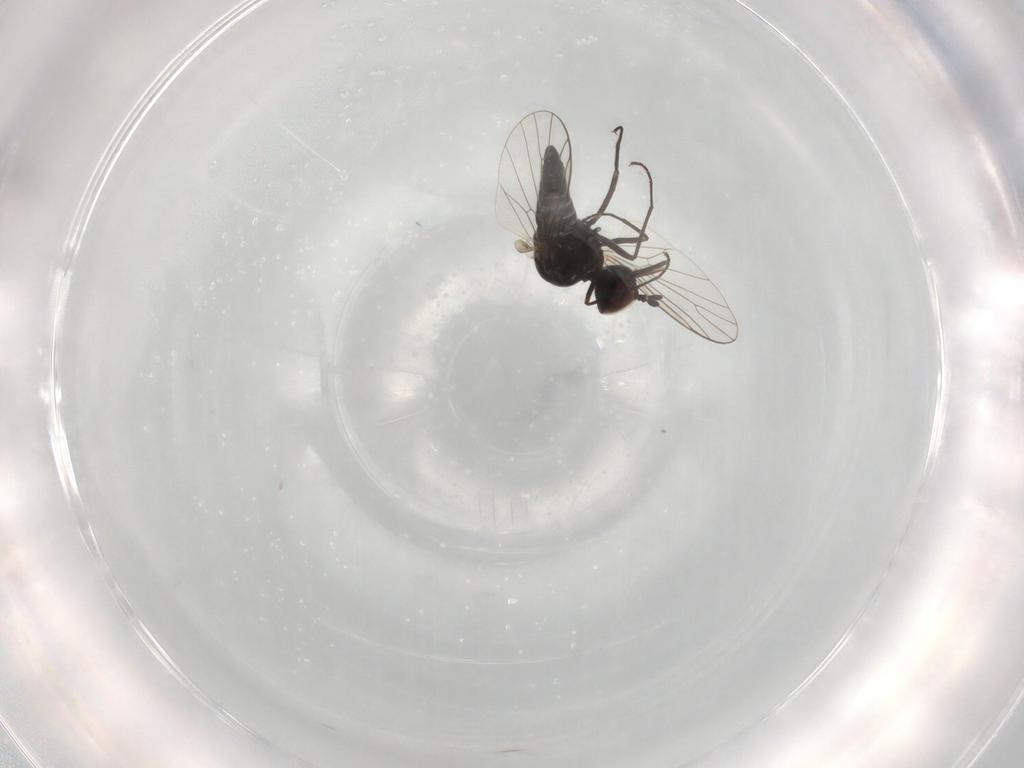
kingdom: Animalia
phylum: Arthropoda
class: Insecta
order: Diptera
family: Bombyliidae
